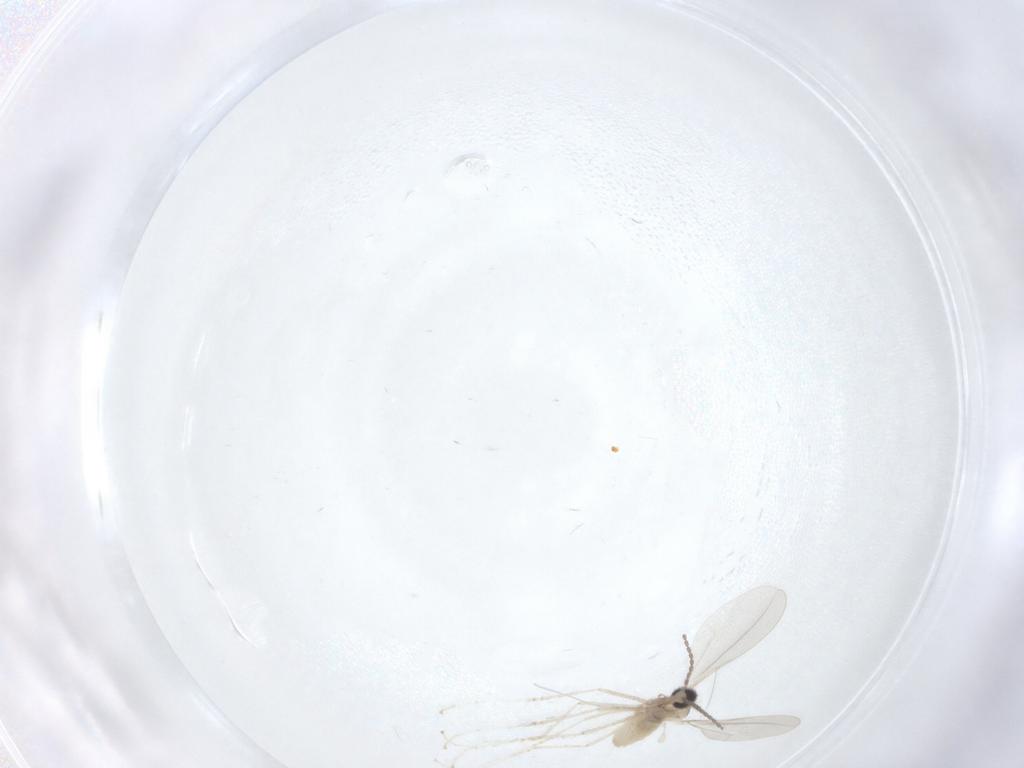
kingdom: Animalia
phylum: Arthropoda
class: Insecta
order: Diptera
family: Cecidomyiidae
